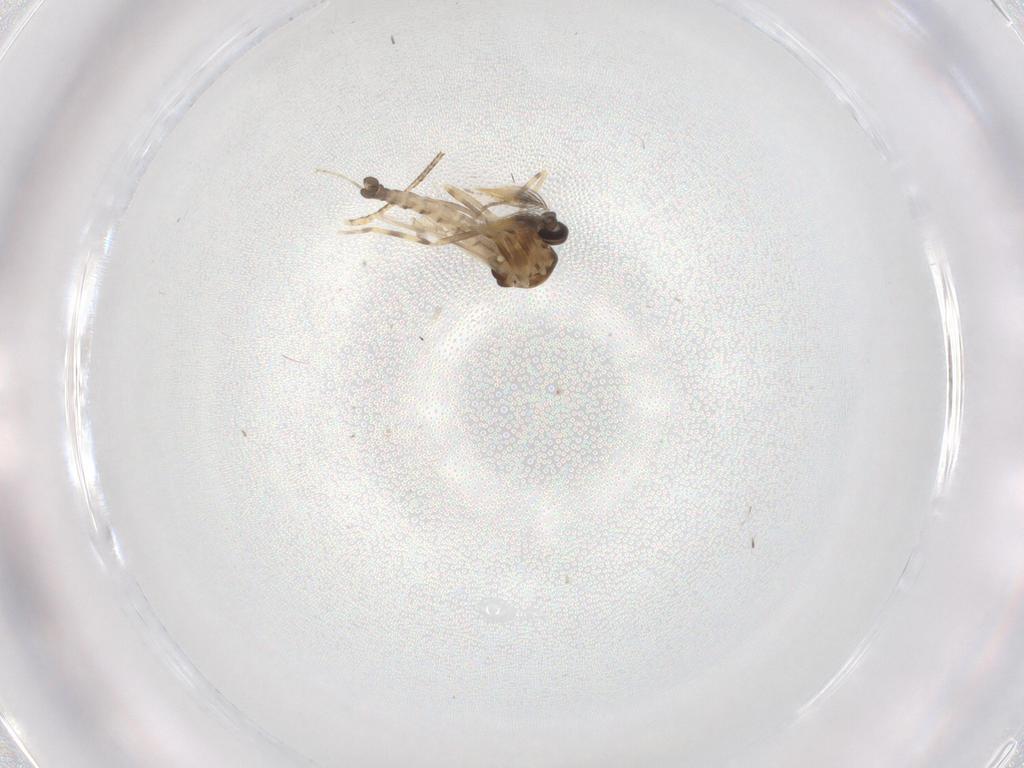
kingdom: Animalia
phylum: Arthropoda
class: Insecta
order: Diptera
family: Ceratopogonidae
